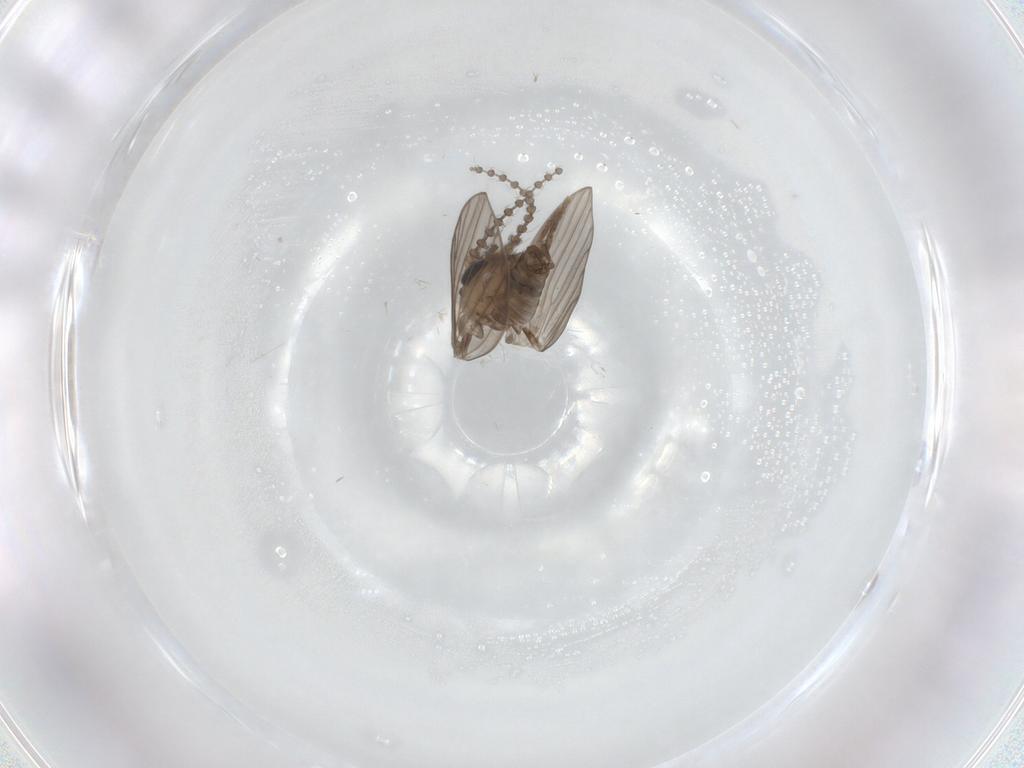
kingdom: Animalia
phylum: Arthropoda
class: Insecta
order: Diptera
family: Psychodidae
